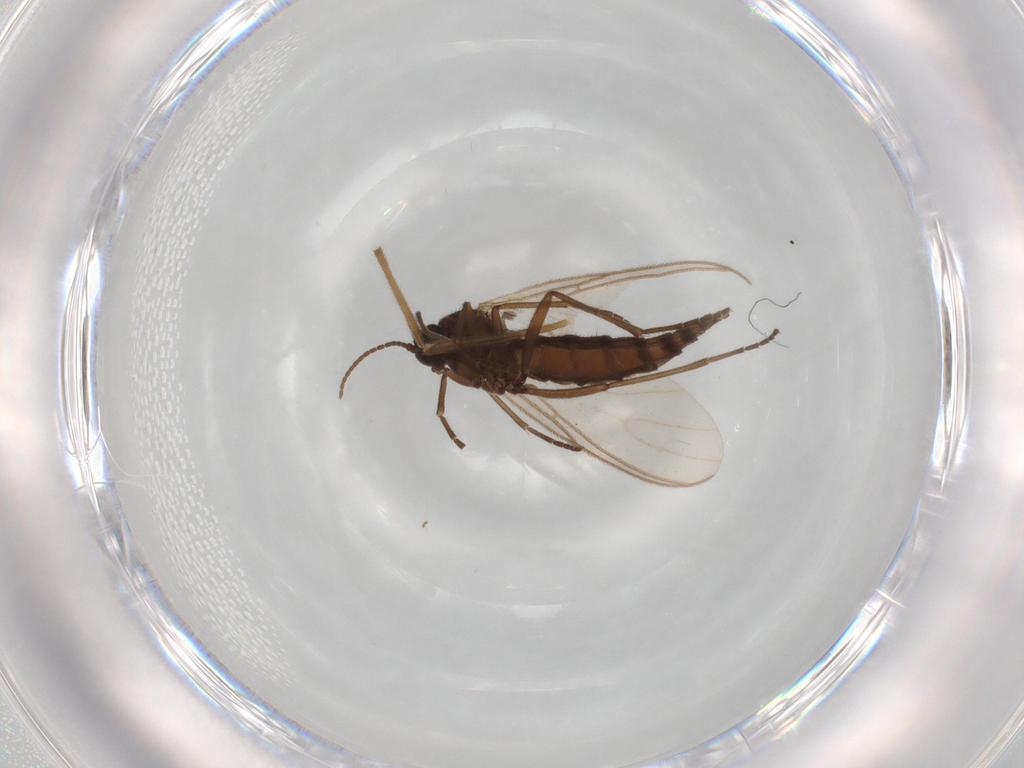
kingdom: Animalia
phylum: Arthropoda
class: Insecta
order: Diptera
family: Sciaridae
